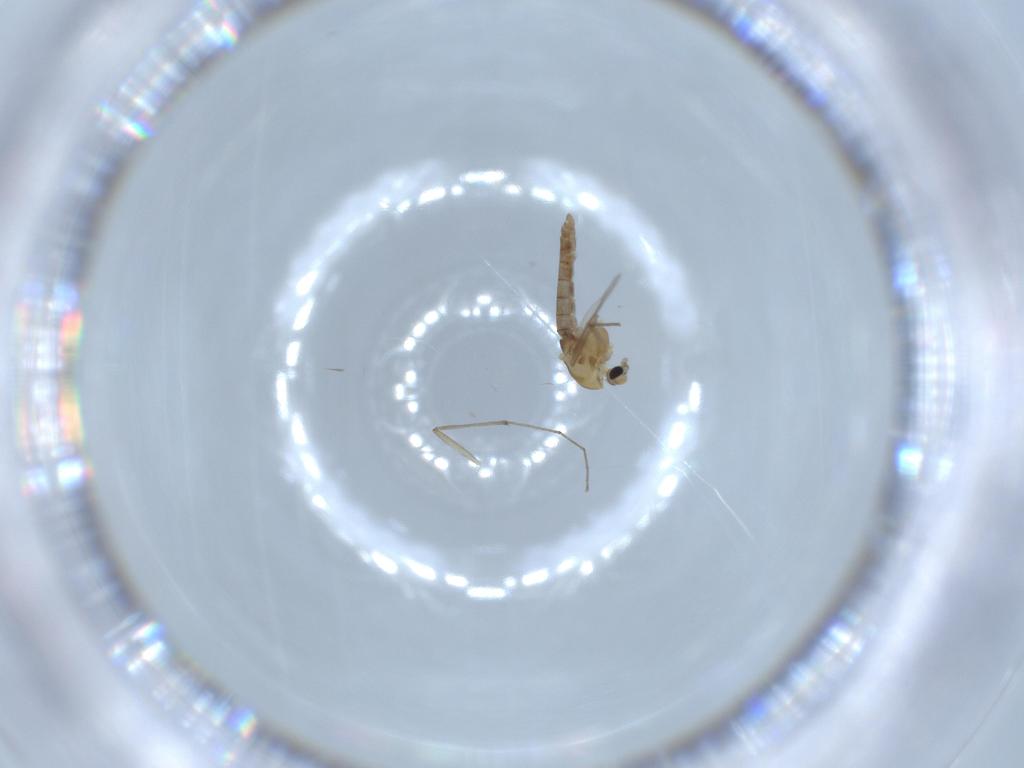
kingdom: Animalia
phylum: Arthropoda
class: Insecta
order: Diptera
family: Chironomidae
